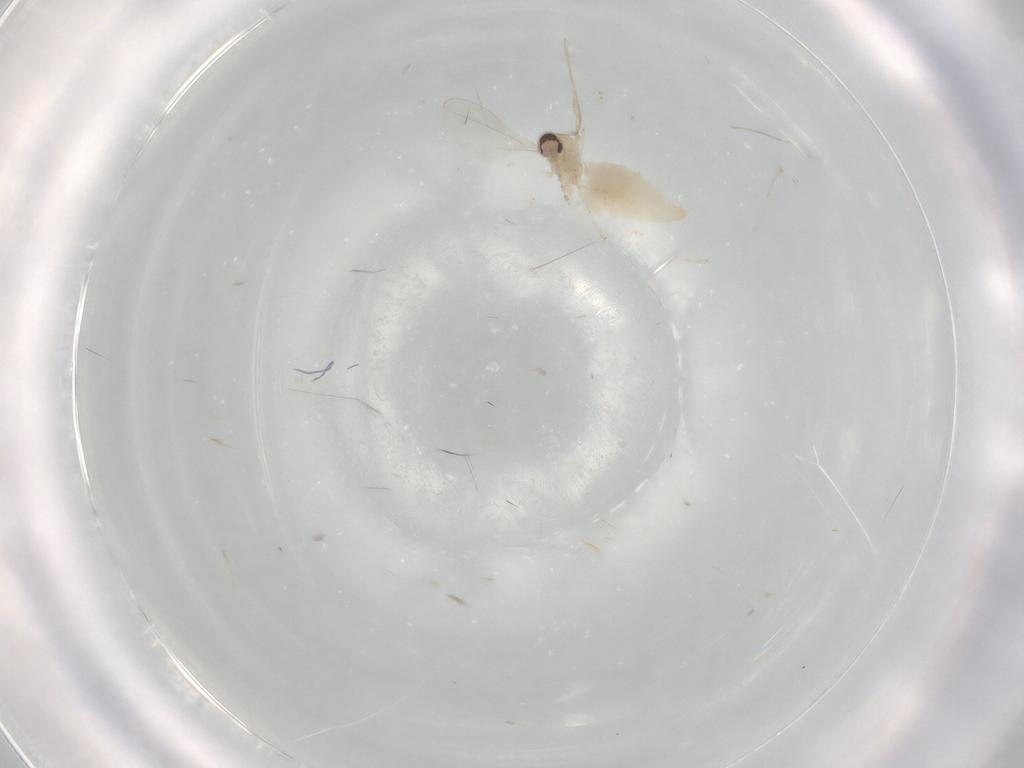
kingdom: Animalia
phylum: Arthropoda
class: Insecta
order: Diptera
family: Cecidomyiidae
